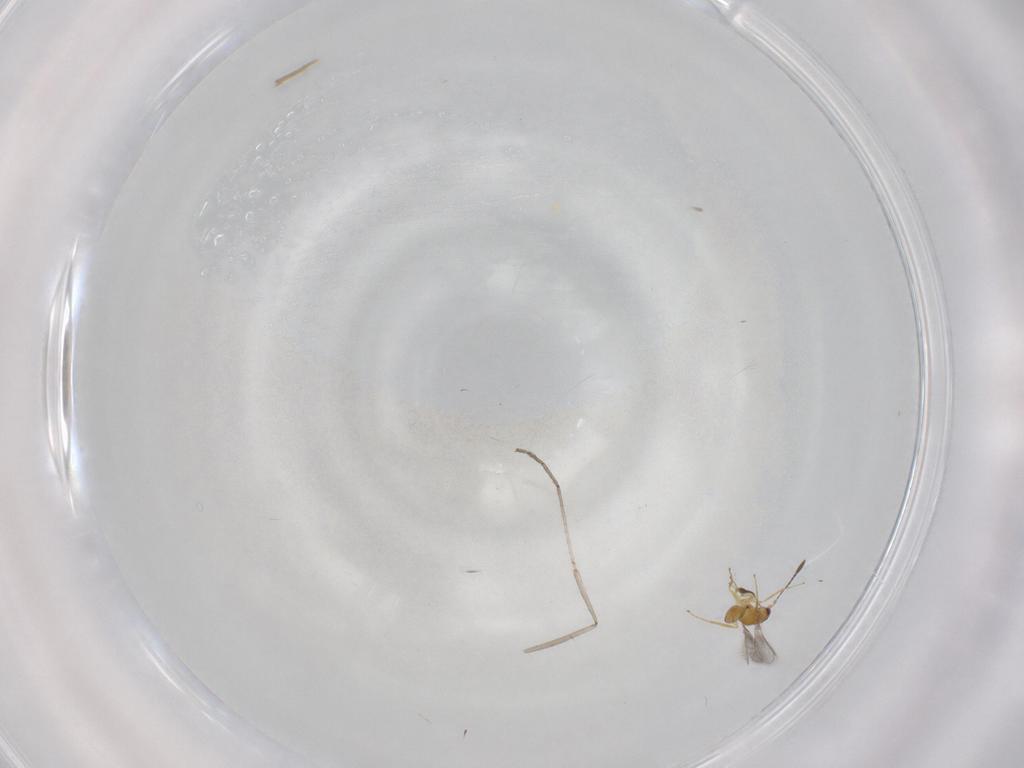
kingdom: Animalia
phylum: Arthropoda
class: Insecta
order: Hymenoptera
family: Mymaridae
